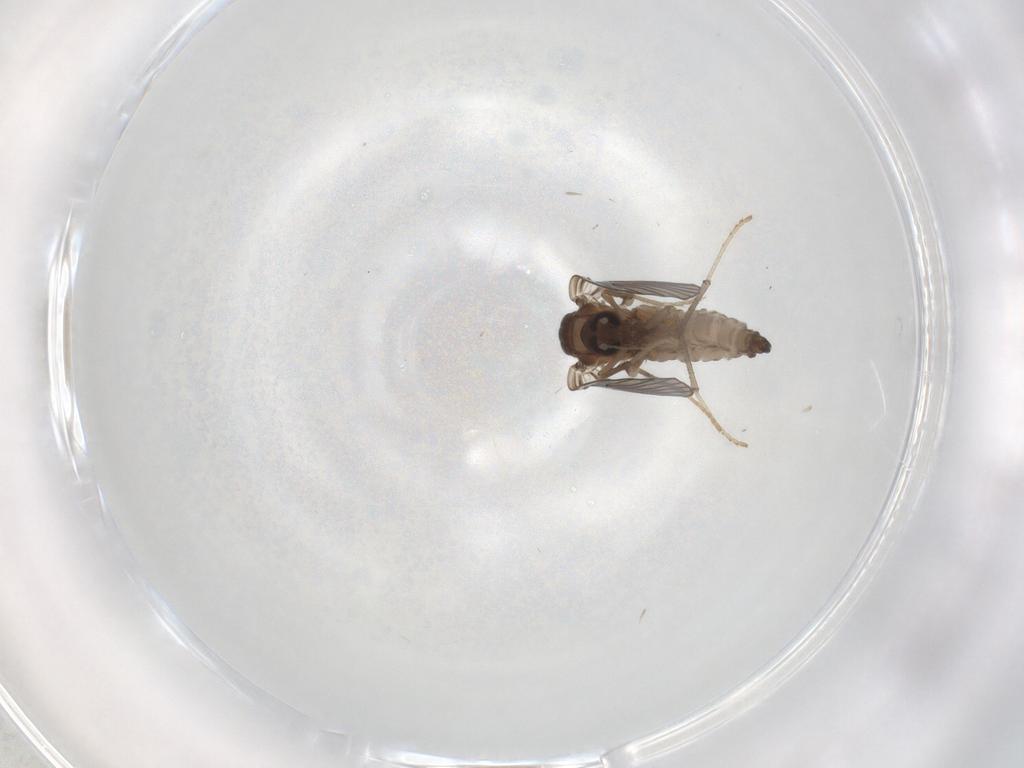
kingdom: Animalia
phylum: Arthropoda
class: Insecta
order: Diptera
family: Psychodidae
